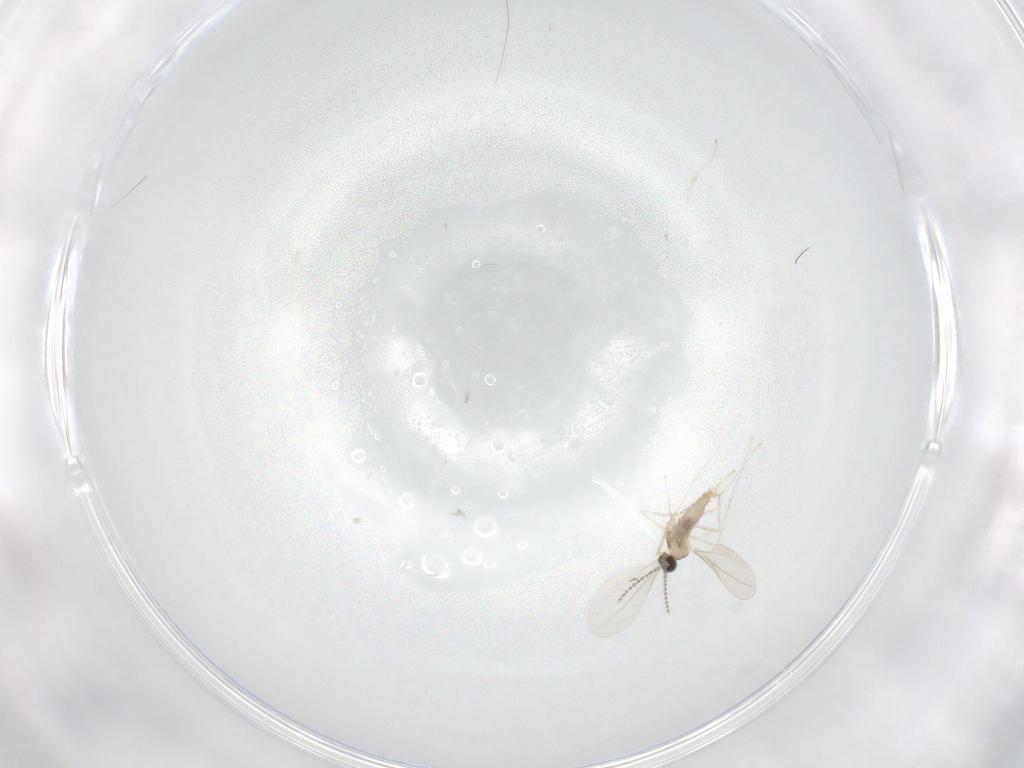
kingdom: Animalia
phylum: Arthropoda
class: Insecta
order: Diptera
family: Cecidomyiidae
